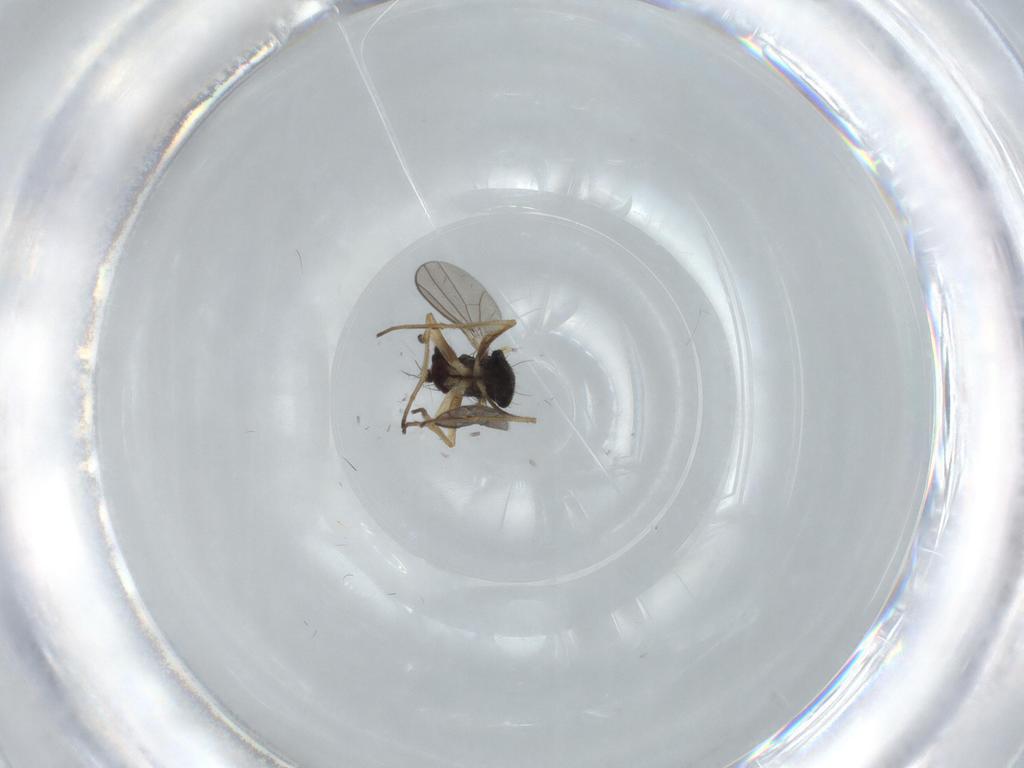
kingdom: Animalia
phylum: Arthropoda
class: Insecta
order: Diptera
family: Dolichopodidae
